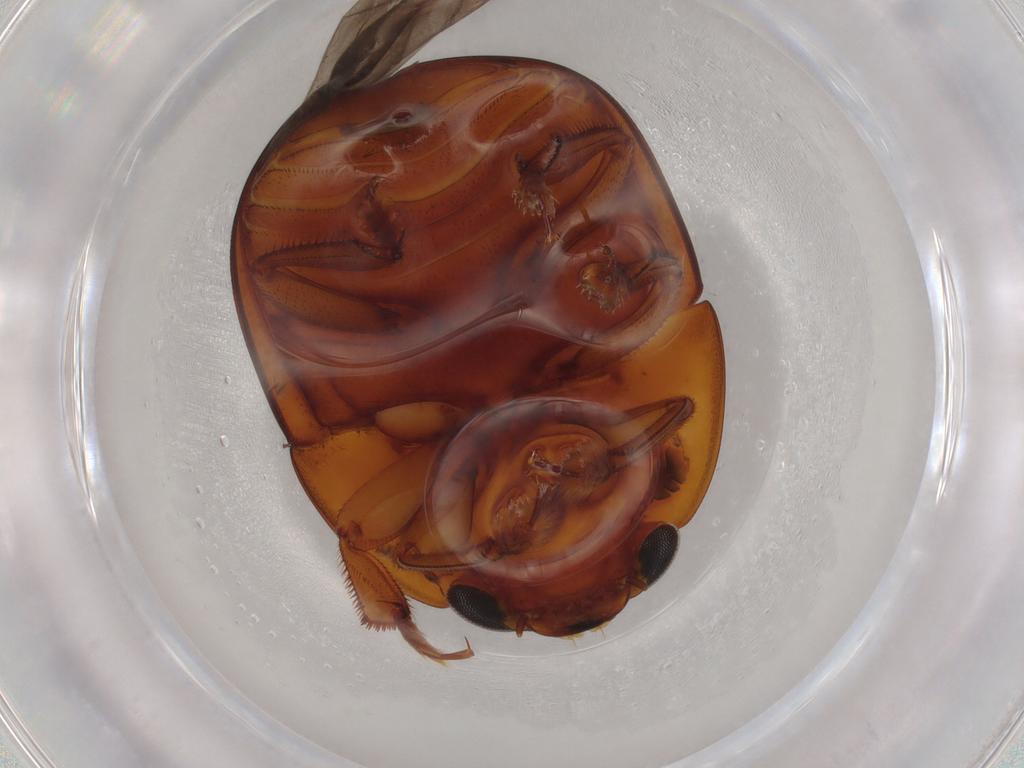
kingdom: Animalia
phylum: Arthropoda
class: Insecta
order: Coleoptera
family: Nitidulidae
